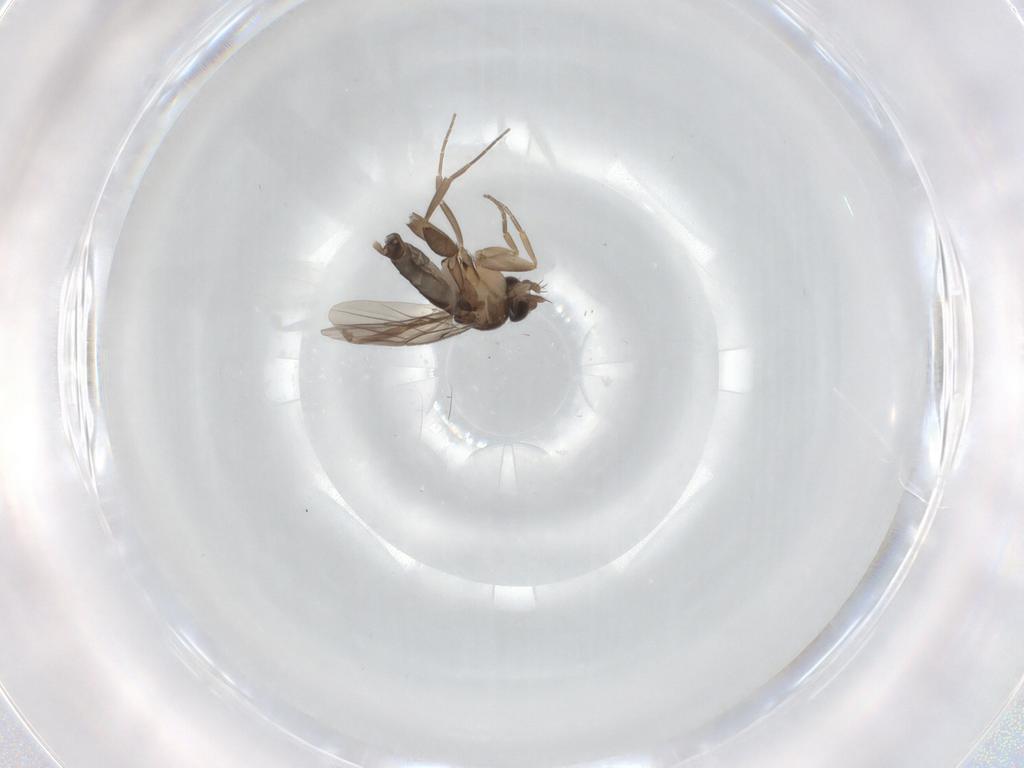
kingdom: Animalia
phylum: Arthropoda
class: Insecta
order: Diptera
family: Phoridae
